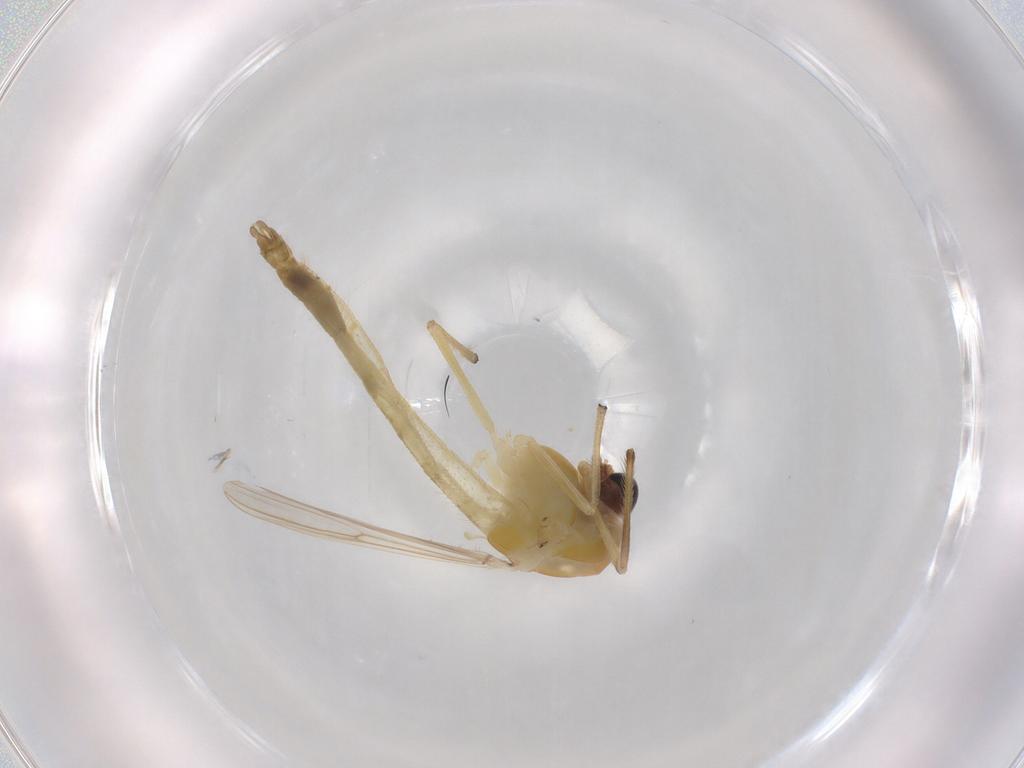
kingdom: Animalia
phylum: Arthropoda
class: Insecta
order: Diptera
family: Chironomidae
